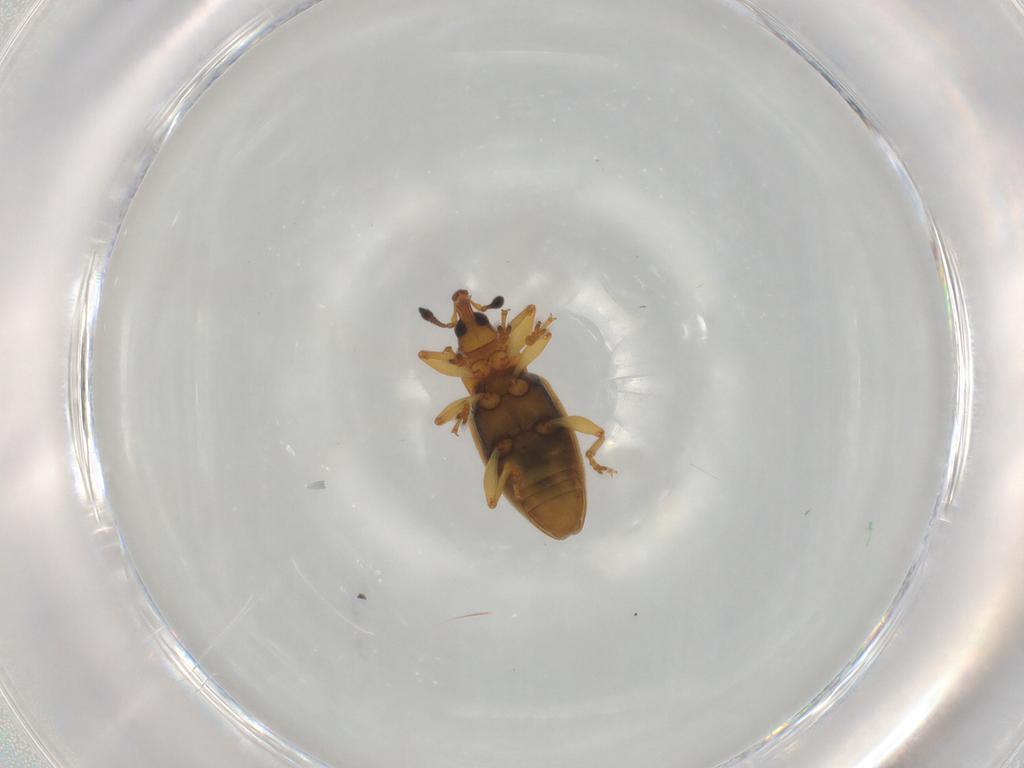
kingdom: Animalia
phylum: Arthropoda
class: Insecta
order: Coleoptera
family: Curculionidae
